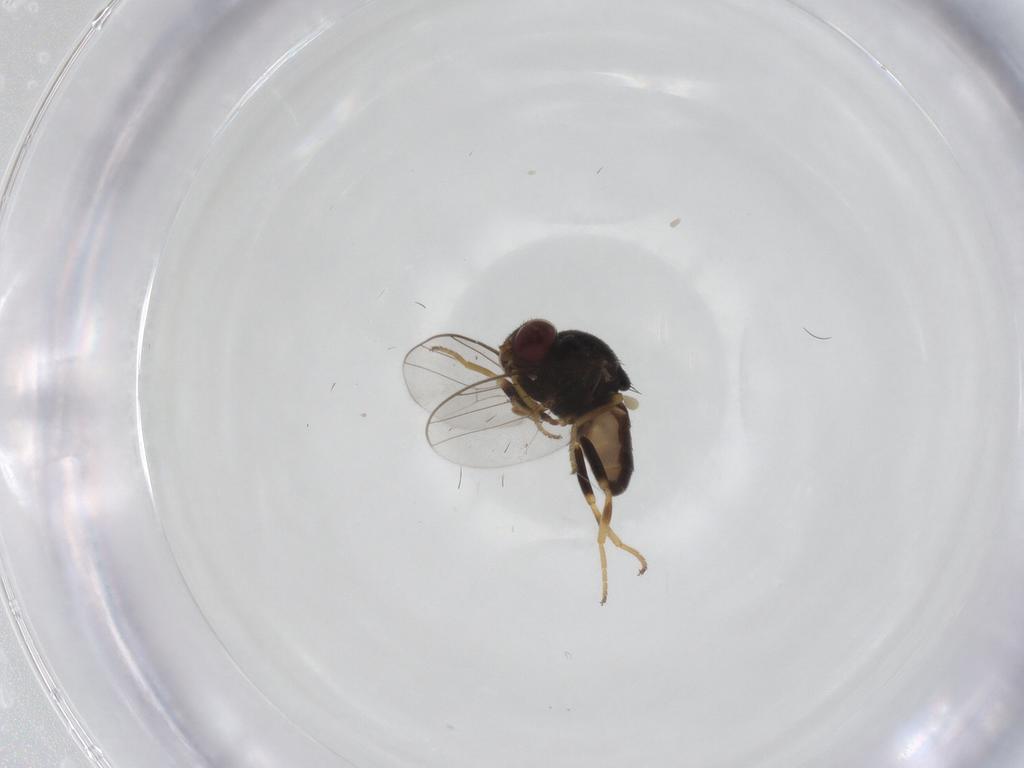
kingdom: Animalia
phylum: Arthropoda
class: Insecta
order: Diptera
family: Chloropidae
